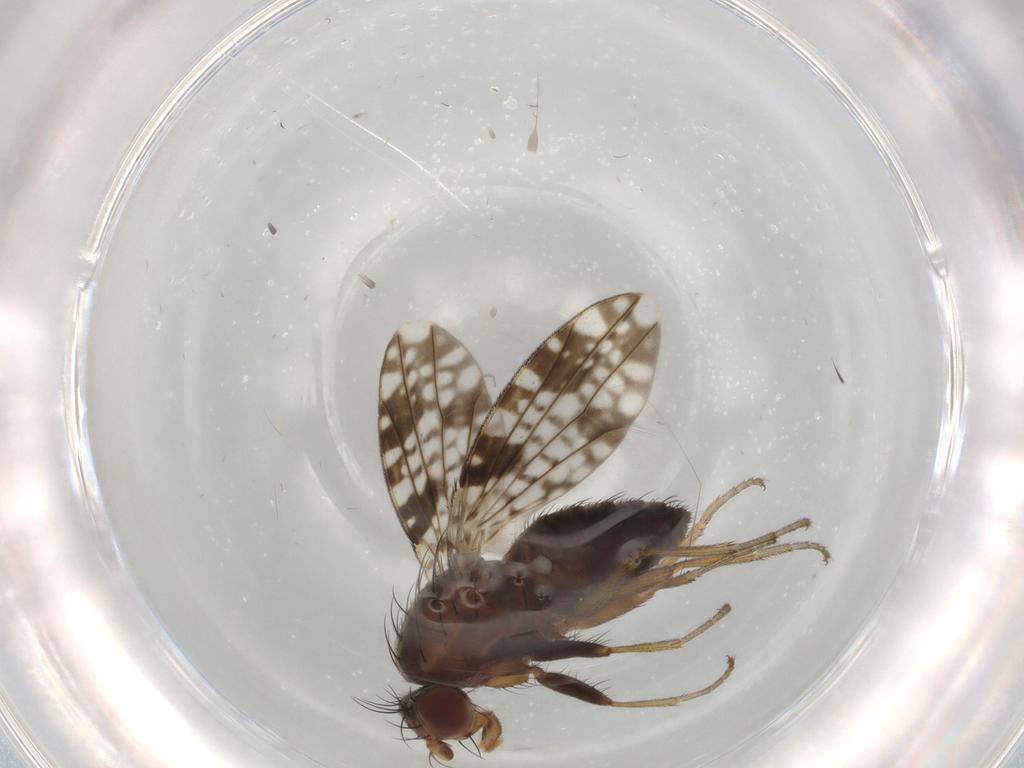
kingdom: Animalia
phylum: Arthropoda
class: Insecta
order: Diptera
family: Tephritidae
